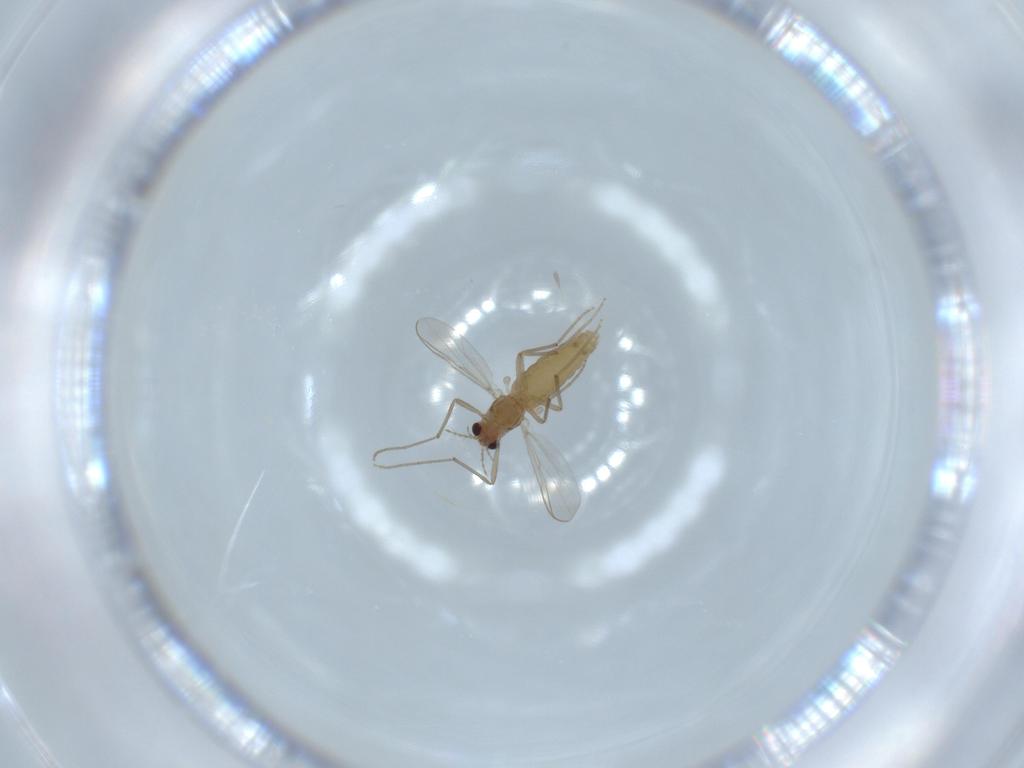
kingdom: Animalia
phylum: Arthropoda
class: Insecta
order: Diptera
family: Chironomidae
